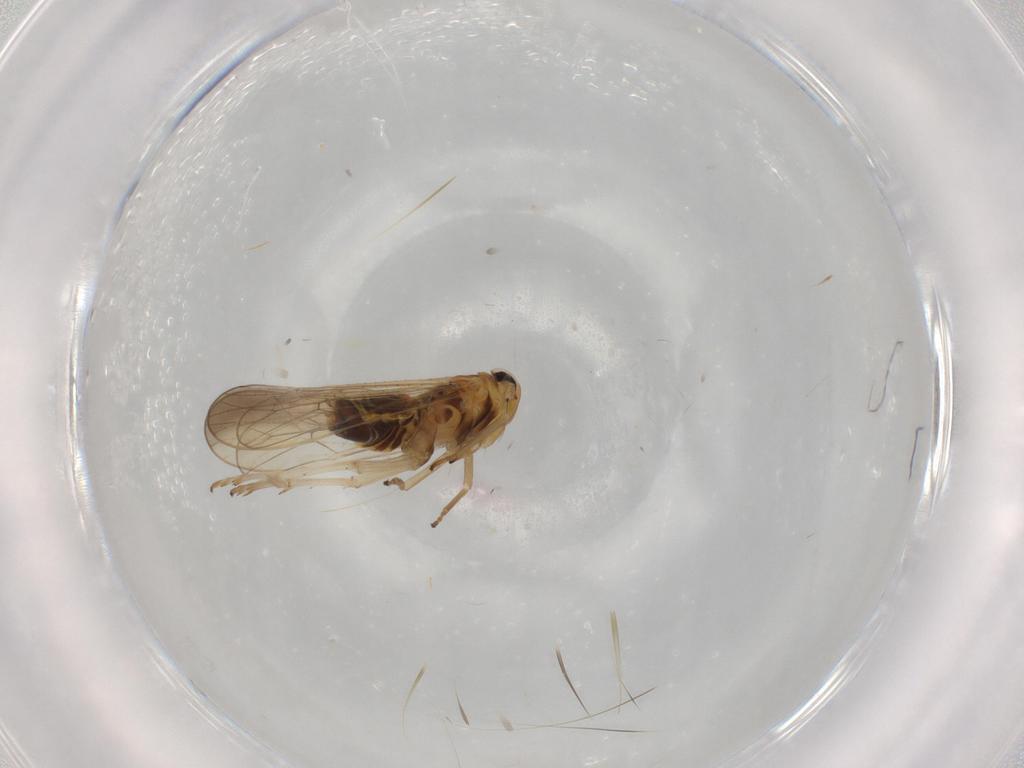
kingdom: Animalia
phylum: Arthropoda
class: Insecta
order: Hemiptera
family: Delphacidae
